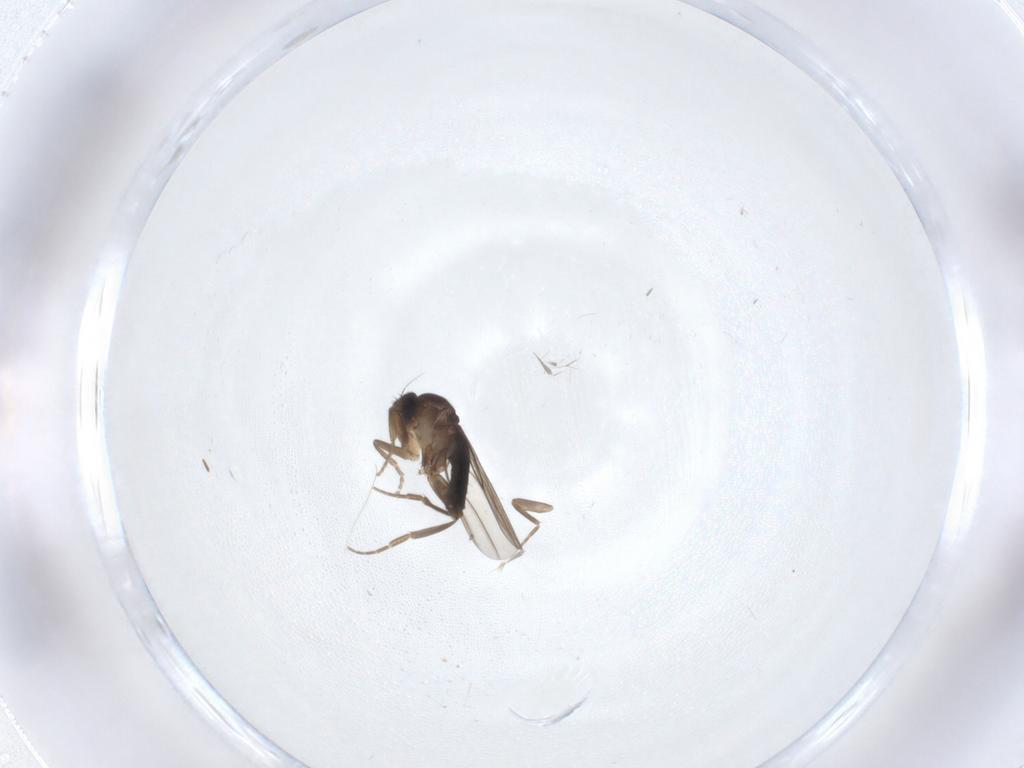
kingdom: Animalia
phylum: Arthropoda
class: Insecta
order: Diptera
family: Phoridae
